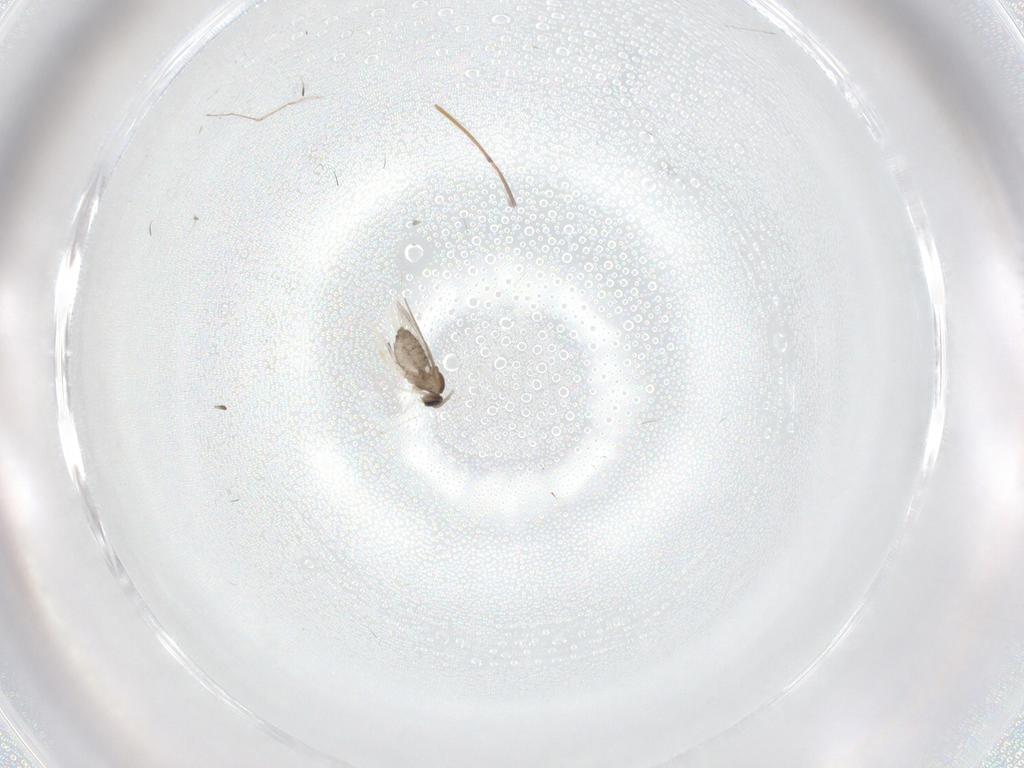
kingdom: Animalia
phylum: Arthropoda
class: Insecta
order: Diptera
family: Cecidomyiidae
